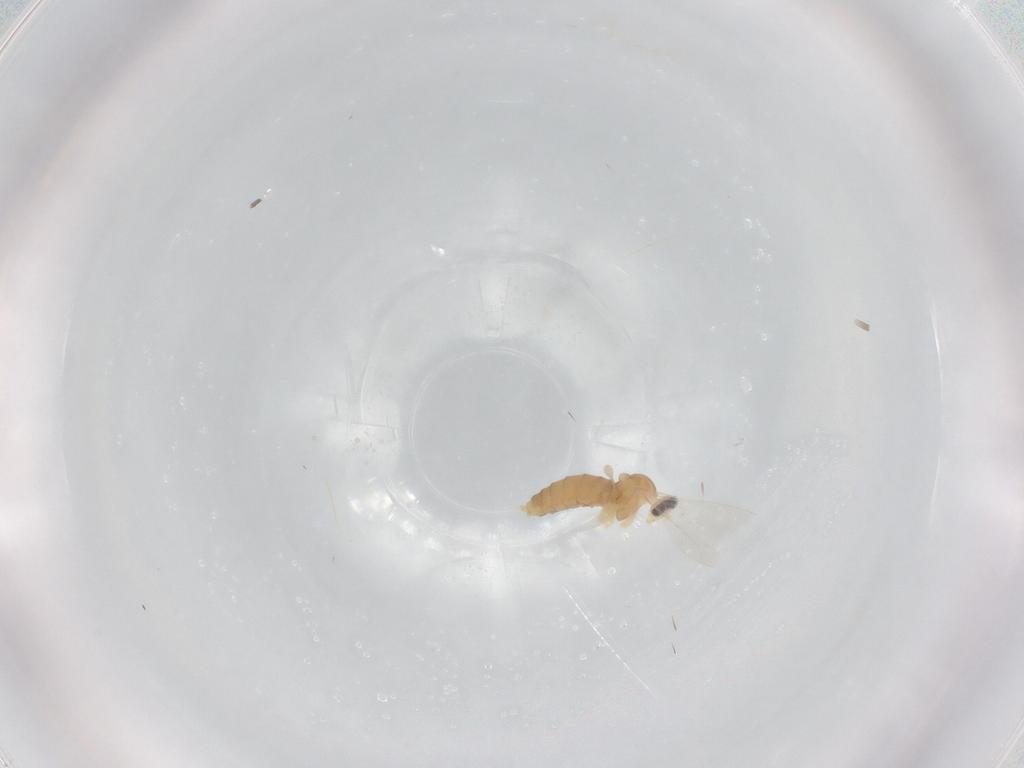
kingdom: Animalia
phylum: Arthropoda
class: Insecta
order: Diptera
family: Cecidomyiidae
